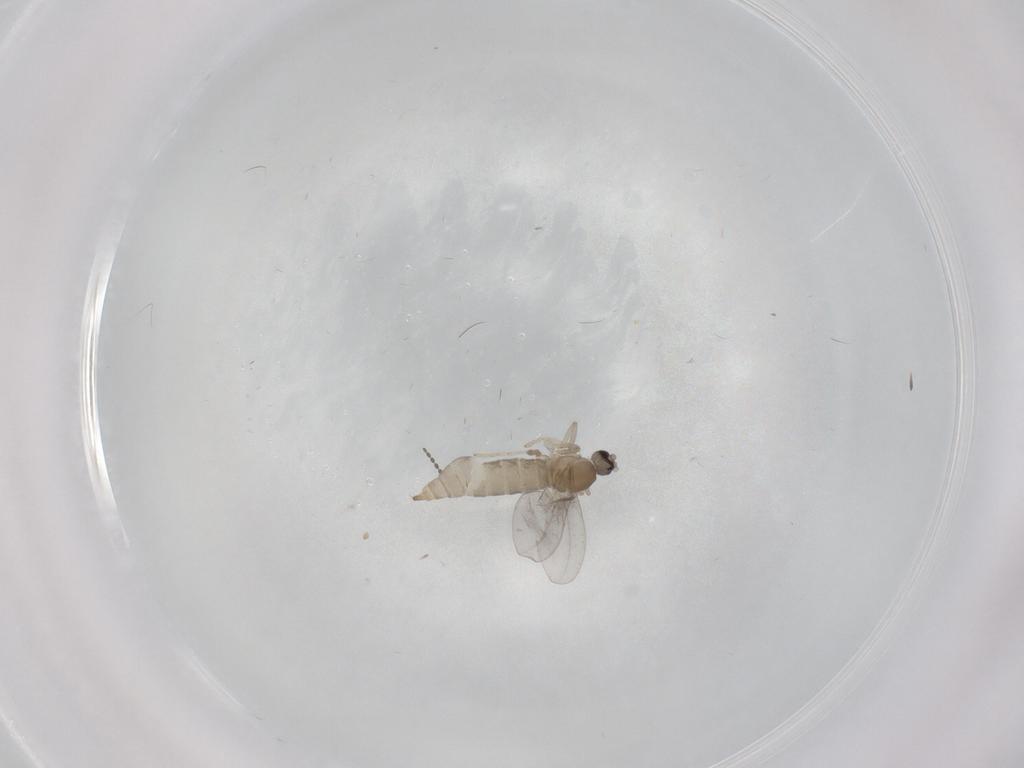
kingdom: Animalia
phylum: Arthropoda
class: Insecta
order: Diptera
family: Cecidomyiidae
